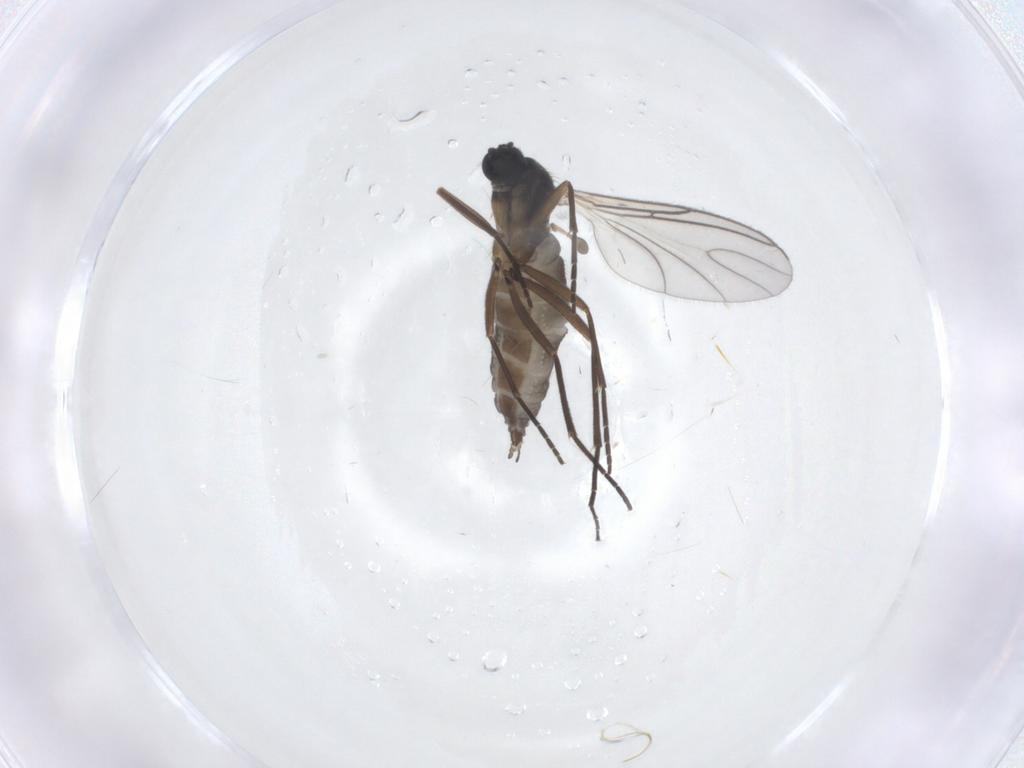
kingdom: Animalia
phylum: Arthropoda
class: Insecta
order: Diptera
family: Sciaridae
